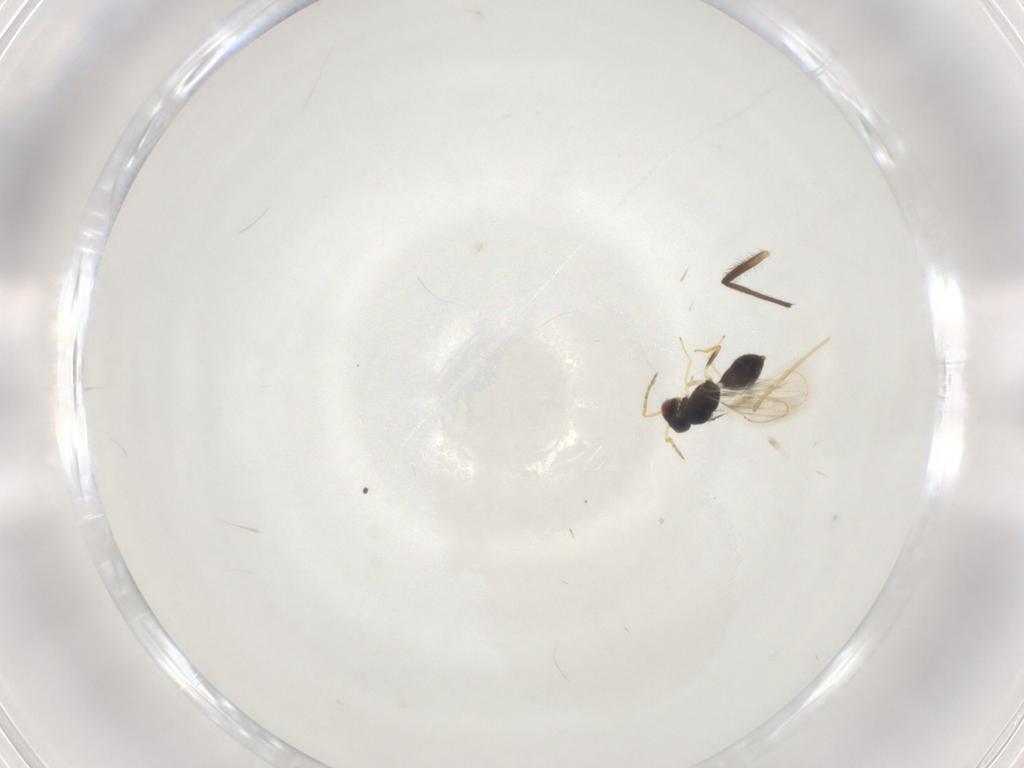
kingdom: Animalia
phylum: Arthropoda
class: Insecta
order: Hymenoptera
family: Eulophidae
